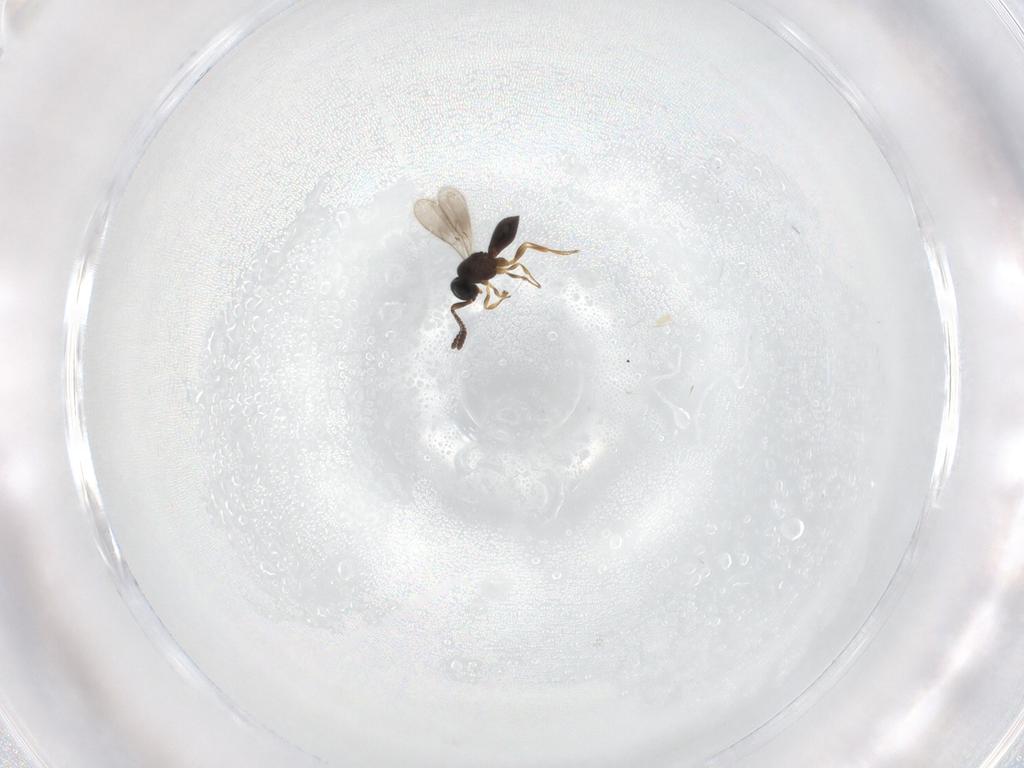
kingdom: Animalia
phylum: Arthropoda
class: Insecta
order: Hymenoptera
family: Scelionidae
